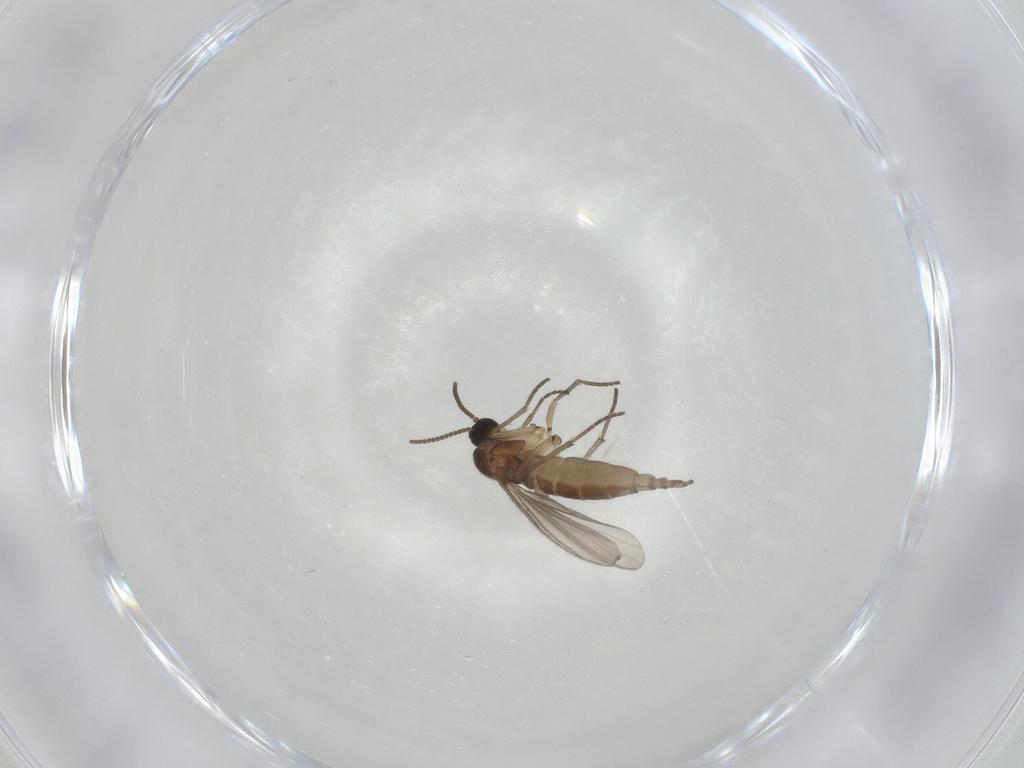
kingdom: Animalia
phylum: Arthropoda
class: Insecta
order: Diptera
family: Sciaridae
